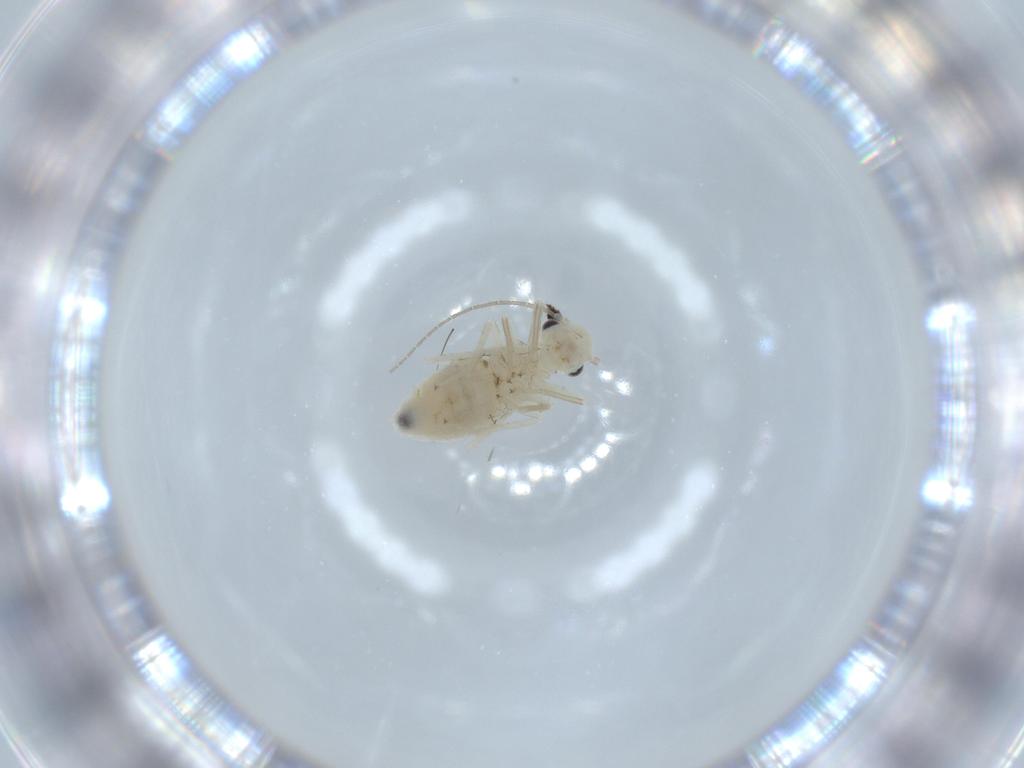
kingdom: Animalia
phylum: Arthropoda
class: Insecta
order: Psocodea
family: Caeciliusidae
